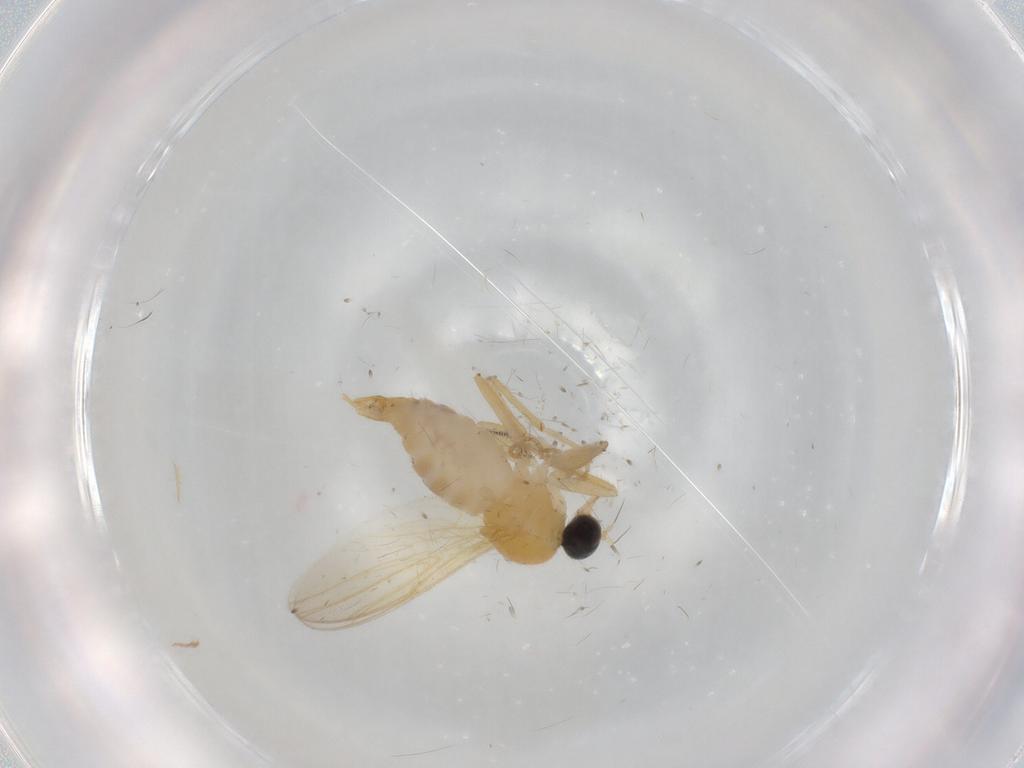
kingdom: Animalia
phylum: Arthropoda
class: Insecta
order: Diptera
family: Hybotidae
